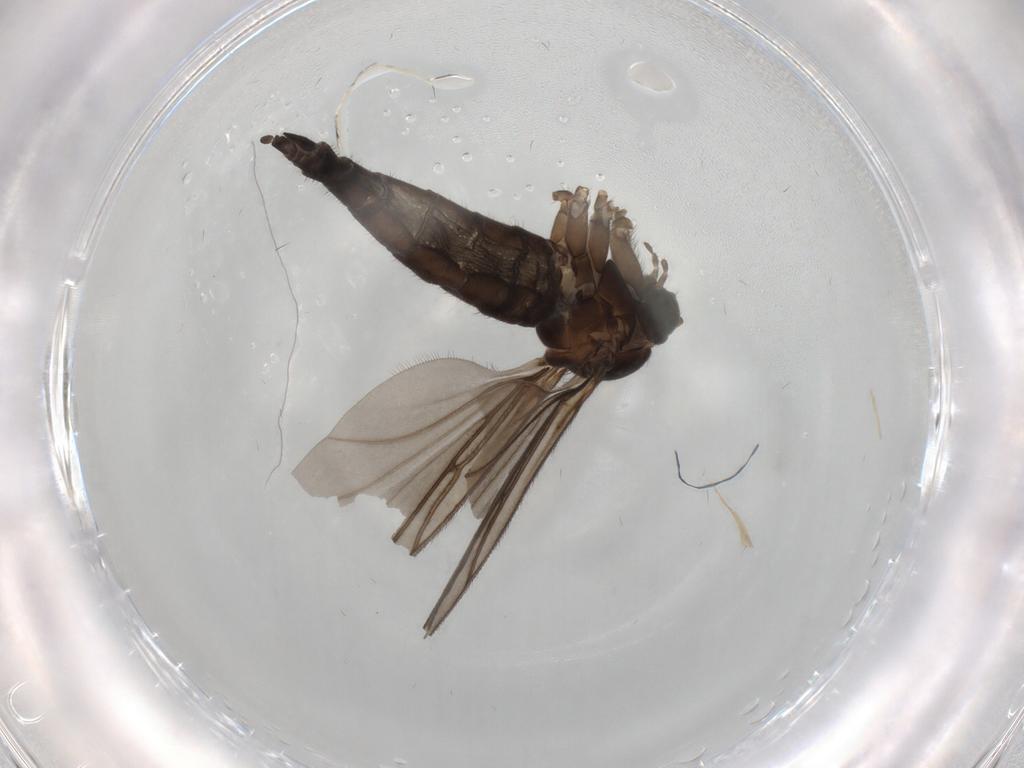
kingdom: Animalia
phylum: Arthropoda
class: Insecta
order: Diptera
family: Sciaridae
